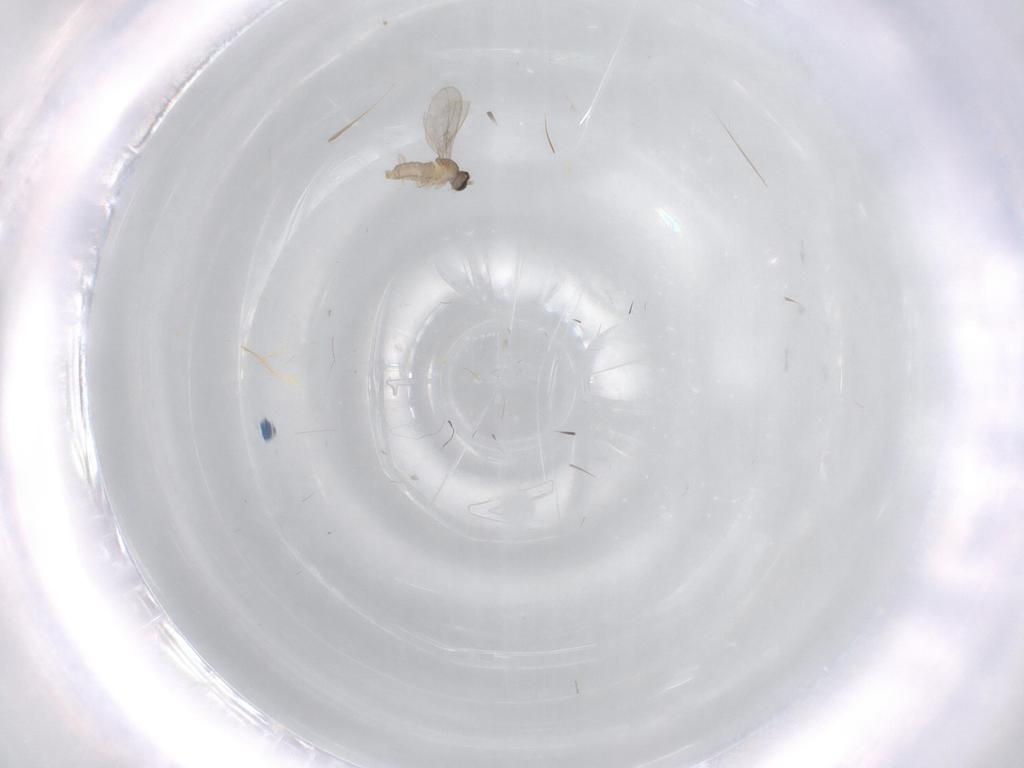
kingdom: Animalia
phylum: Arthropoda
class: Insecta
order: Diptera
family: Cecidomyiidae
